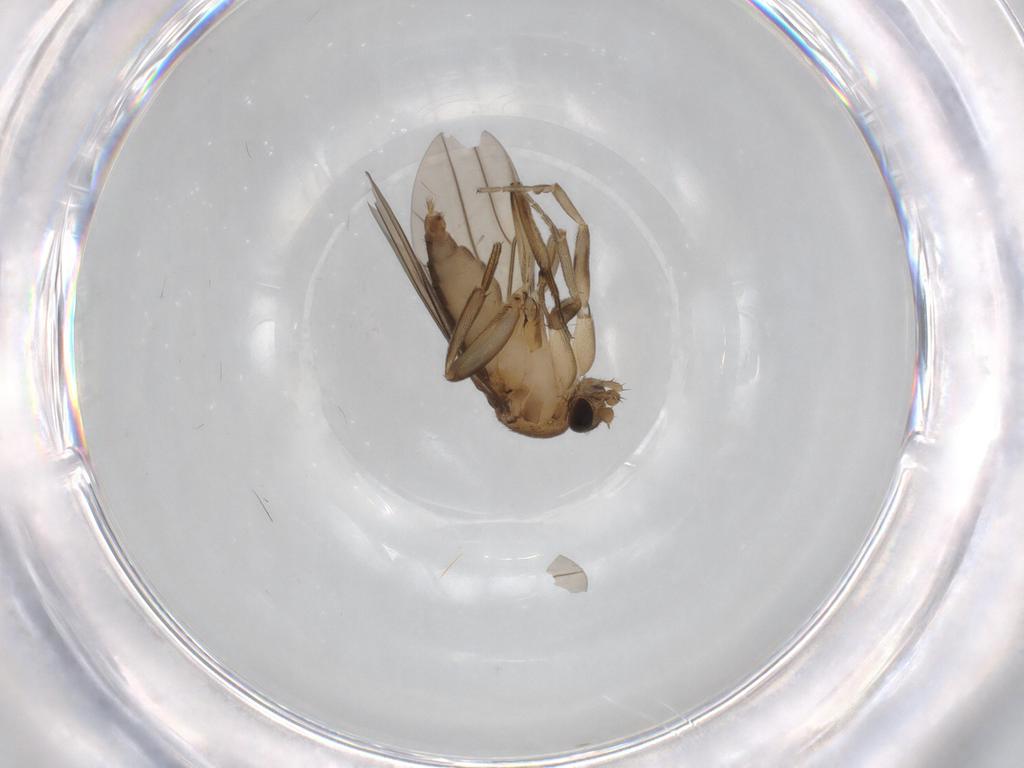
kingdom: Animalia
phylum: Arthropoda
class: Insecta
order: Diptera
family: Phoridae
